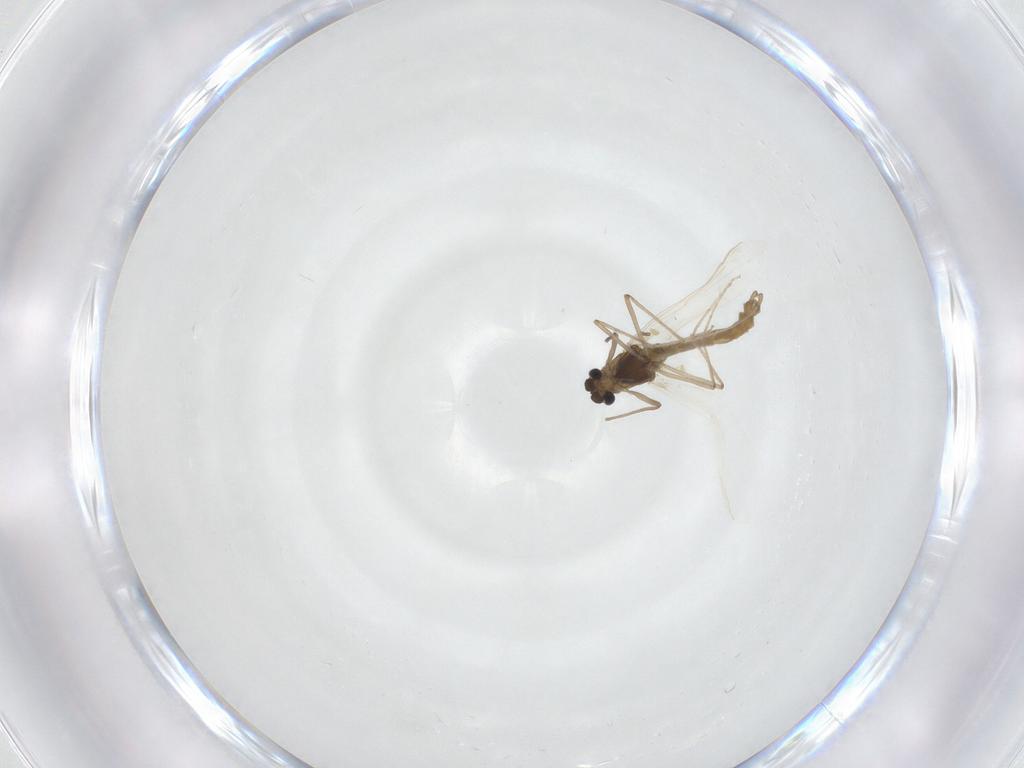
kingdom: Animalia
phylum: Arthropoda
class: Insecta
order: Diptera
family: Chironomidae
